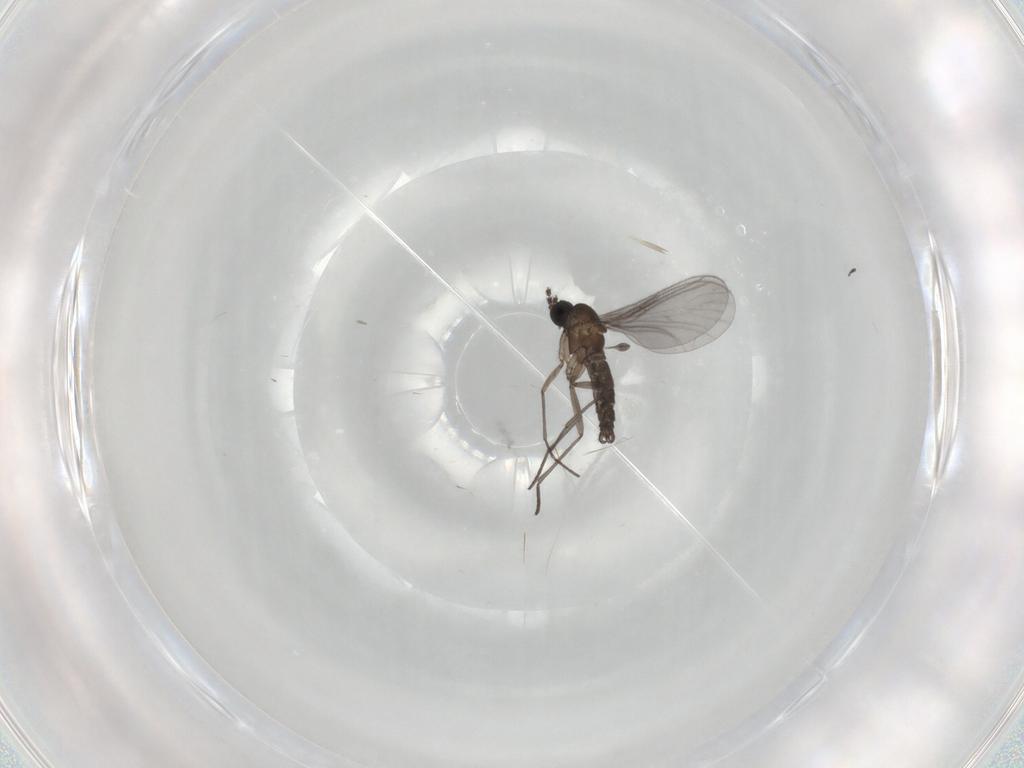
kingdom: Animalia
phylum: Arthropoda
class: Insecta
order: Diptera
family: Sciaridae
